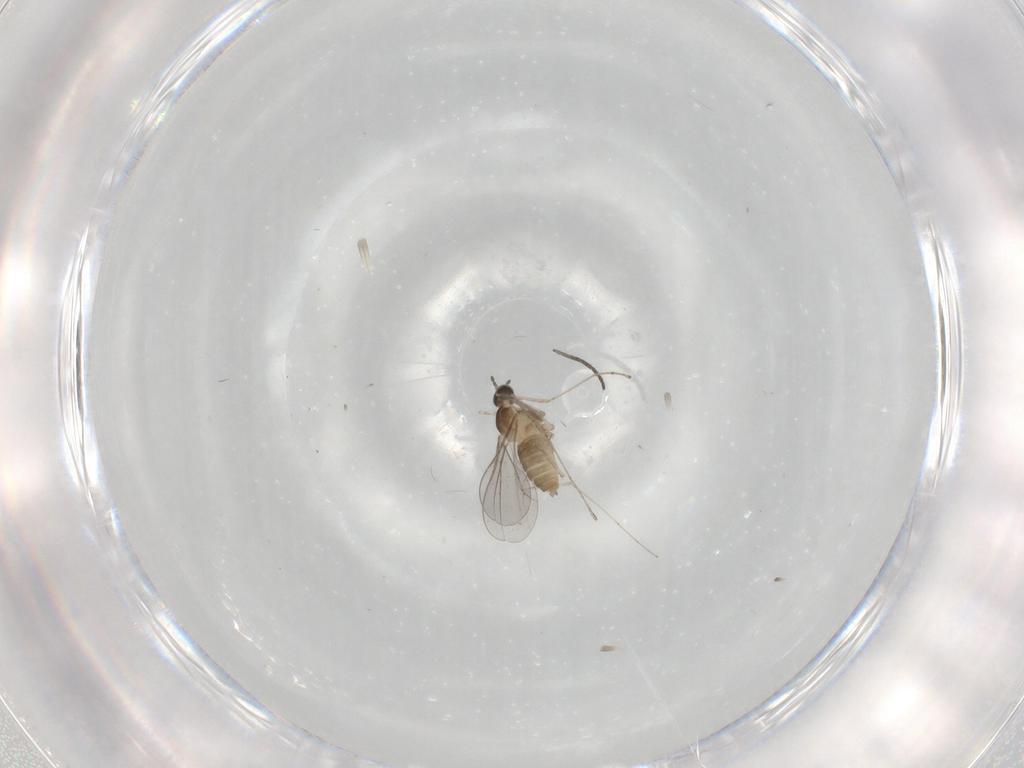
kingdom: Animalia
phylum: Arthropoda
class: Insecta
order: Diptera
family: Cecidomyiidae
